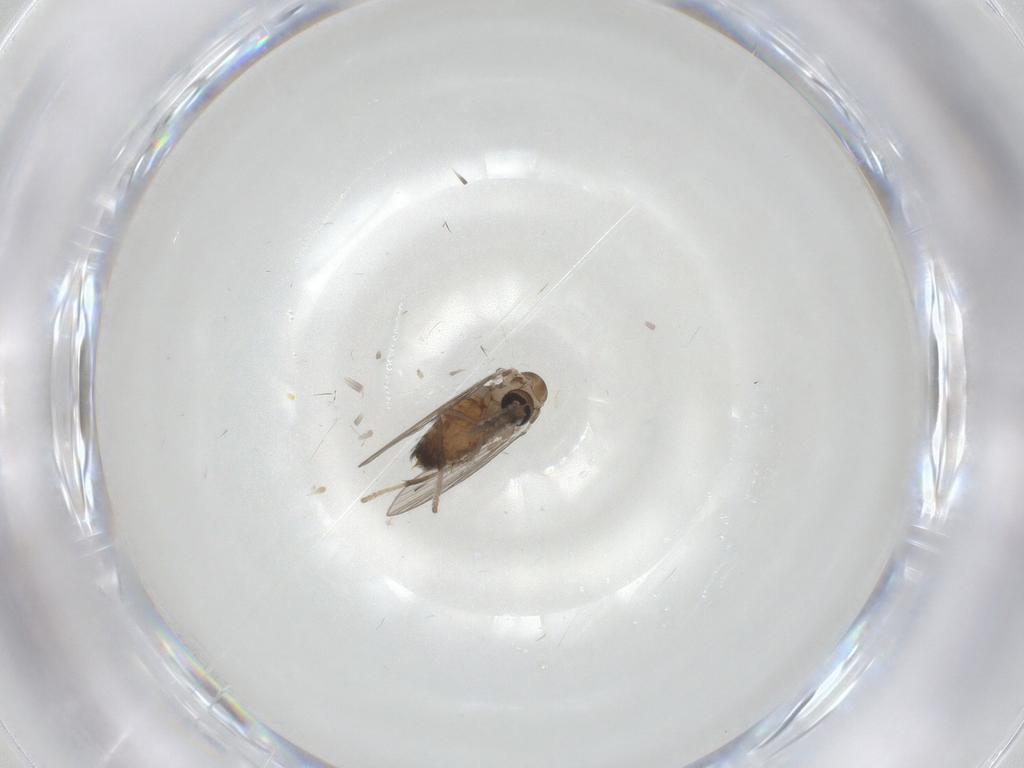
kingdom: Animalia
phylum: Arthropoda
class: Insecta
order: Diptera
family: Cecidomyiidae
